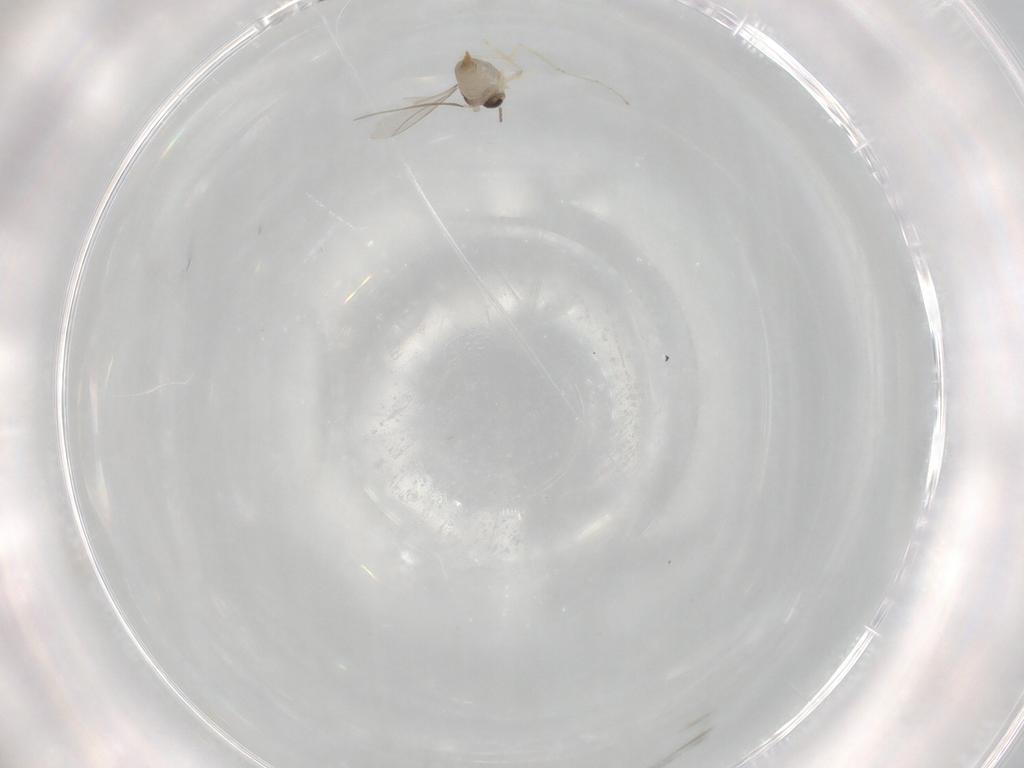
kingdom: Animalia
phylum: Arthropoda
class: Insecta
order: Diptera
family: Cecidomyiidae
